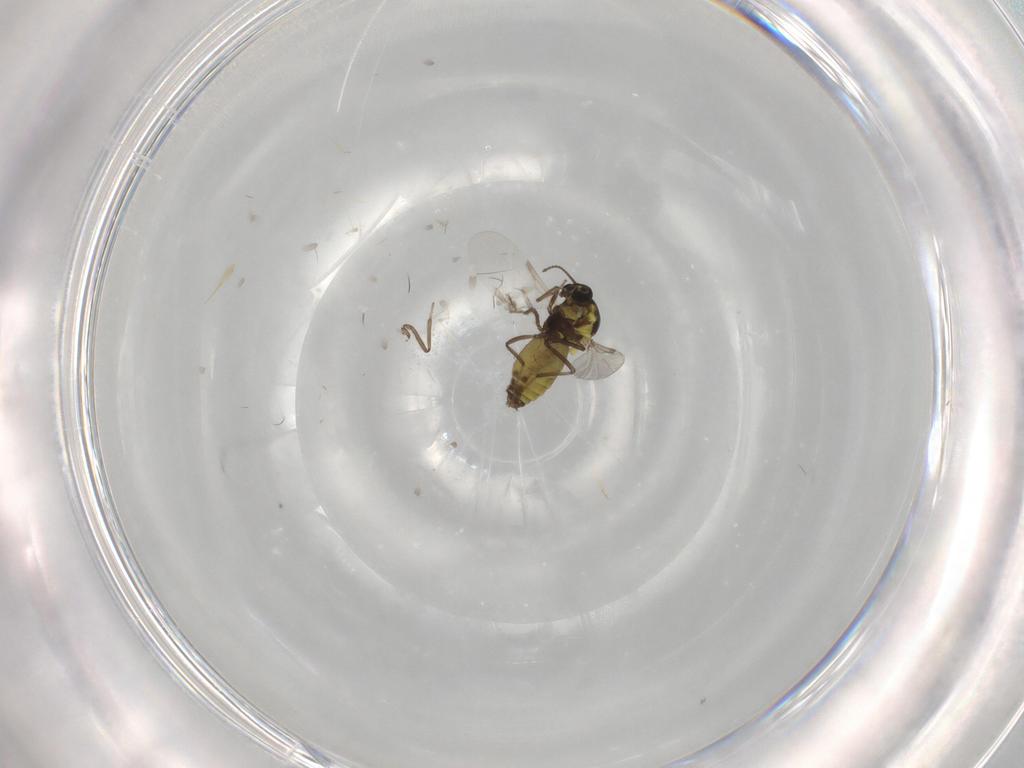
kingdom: Animalia
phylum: Arthropoda
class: Insecta
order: Diptera
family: Ceratopogonidae
